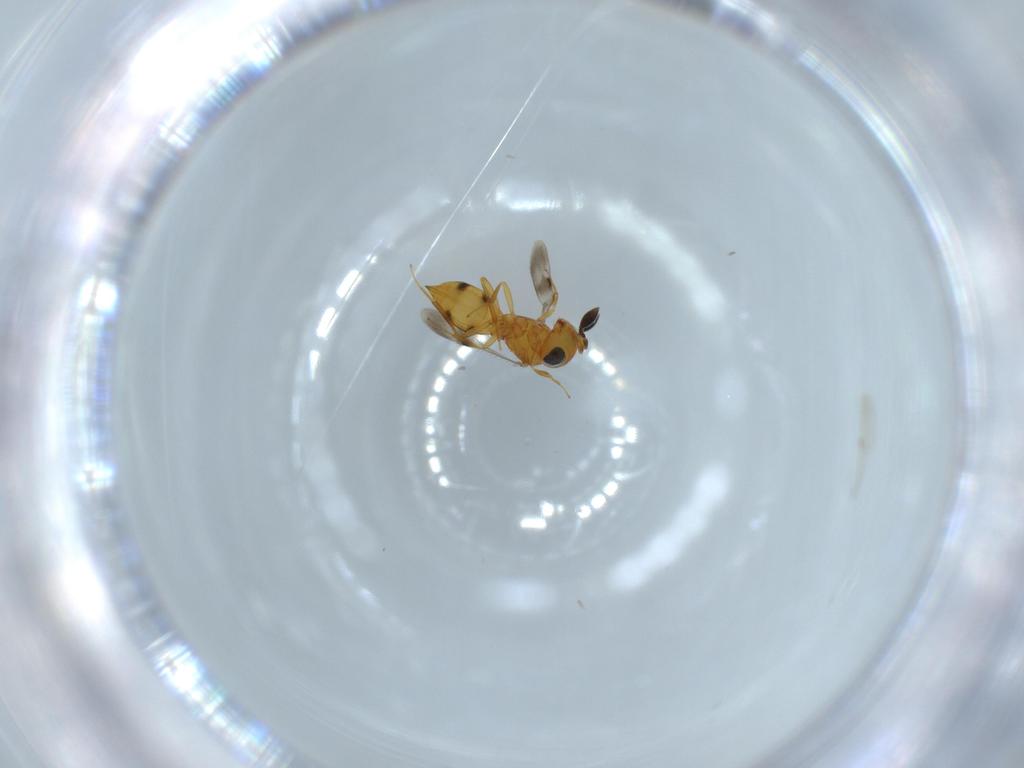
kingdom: Animalia
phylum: Arthropoda
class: Insecta
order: Hymenoptera
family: Scelionidae
